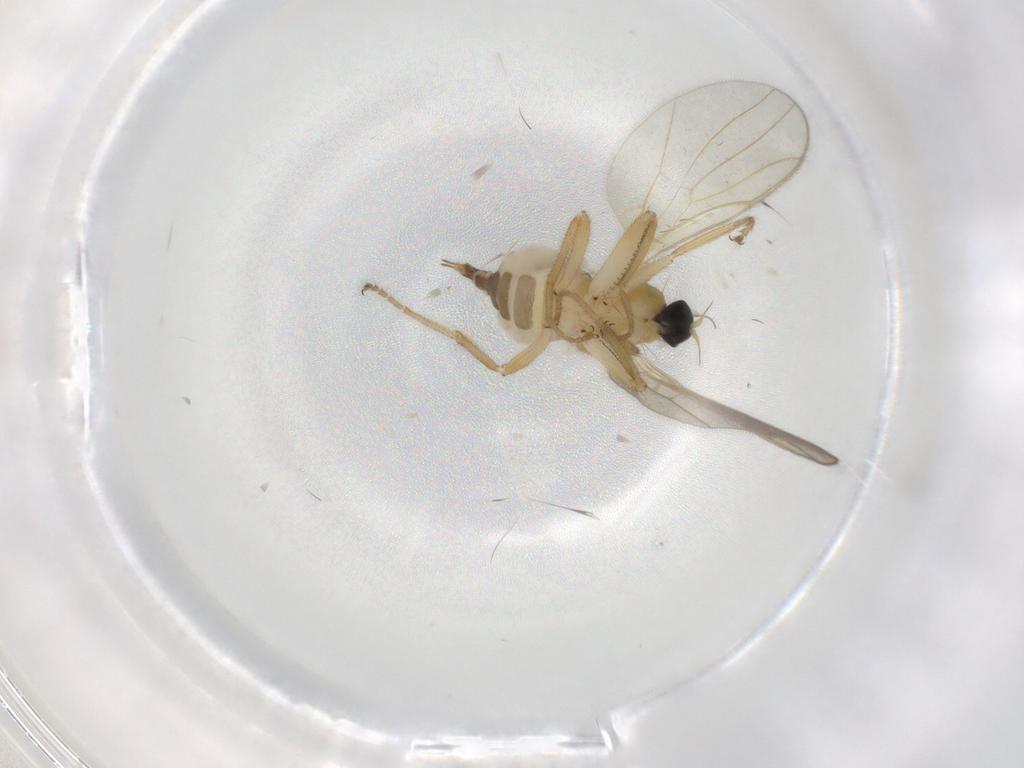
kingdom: Animalia
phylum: Arthropoda
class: Insecta
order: Diptera
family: Hybotidae
